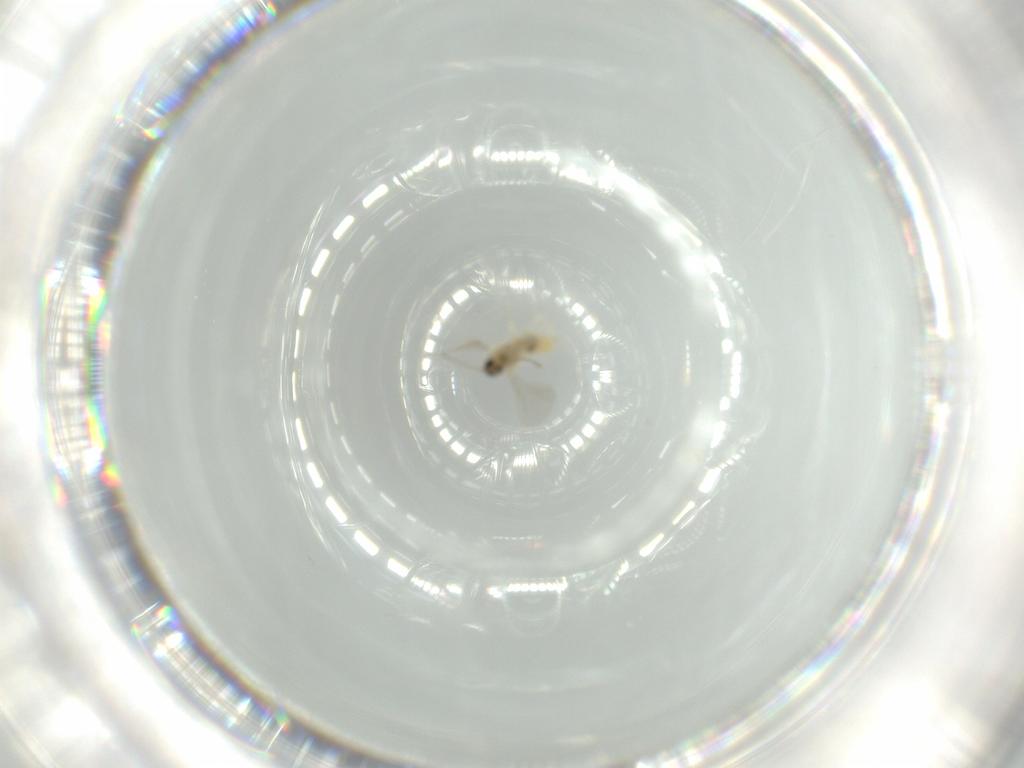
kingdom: Animalia
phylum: Arthropoda
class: Insecta
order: Diptera
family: Cecidomyiidae
